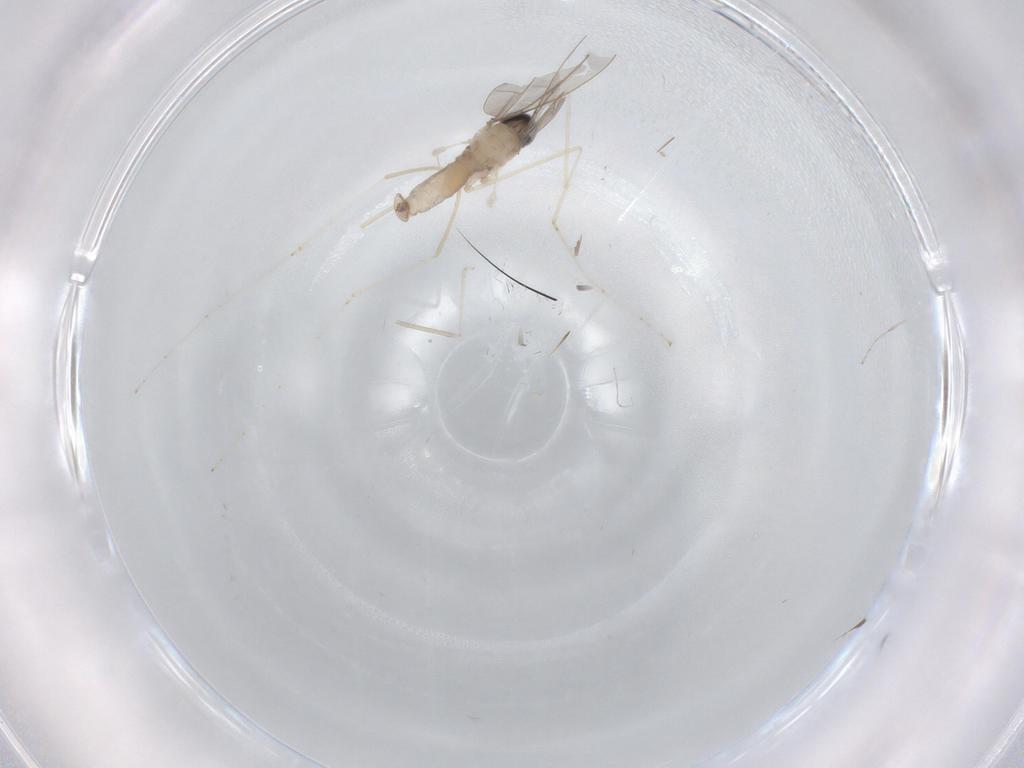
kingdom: Animalia
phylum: Arthropoda
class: Insecta
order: Diptera
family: Cecidomyiidae
